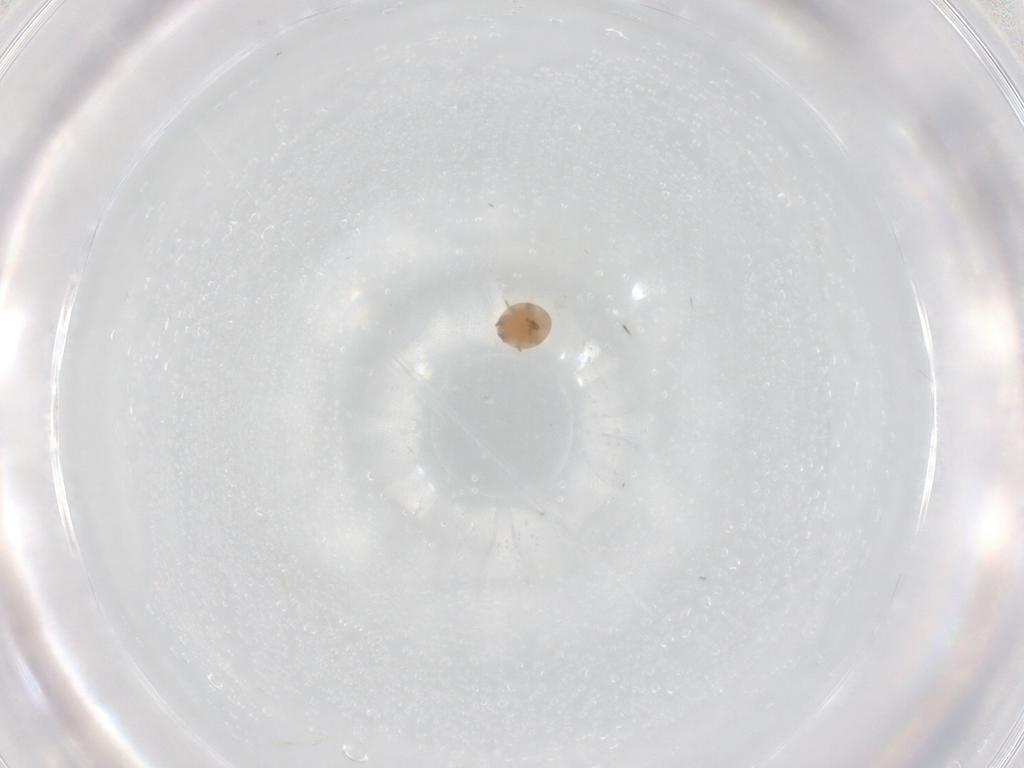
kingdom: Animalia
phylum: Arthropoda
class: Arachnida
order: Mesostigmata
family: Trematuridae
